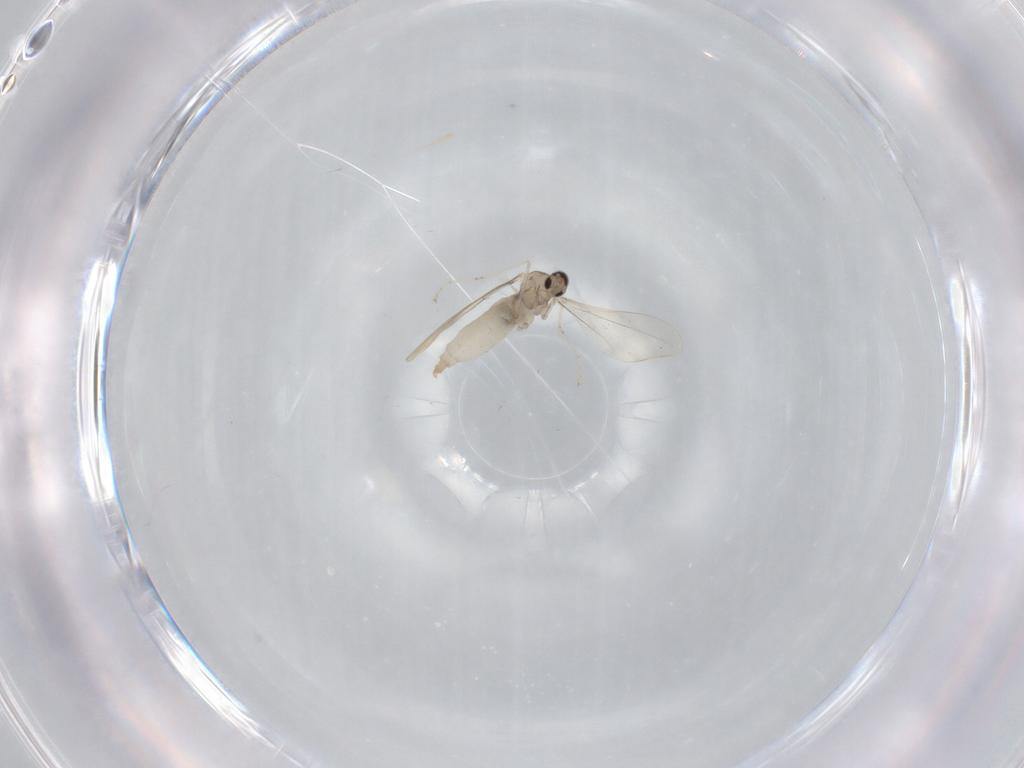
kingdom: Animalia
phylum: Arthropoda
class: Insecta
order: Diptera
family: Cecidomyiidae
